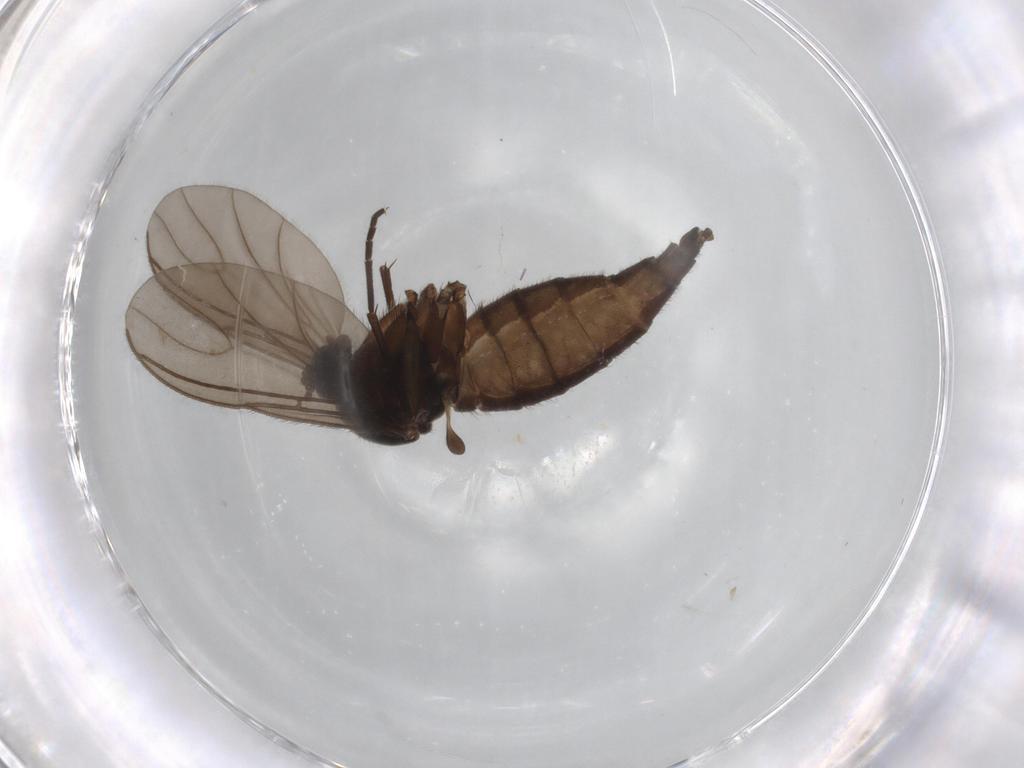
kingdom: Animalia
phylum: Arthropoda
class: Insecta
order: Diptera
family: Sciaridae
